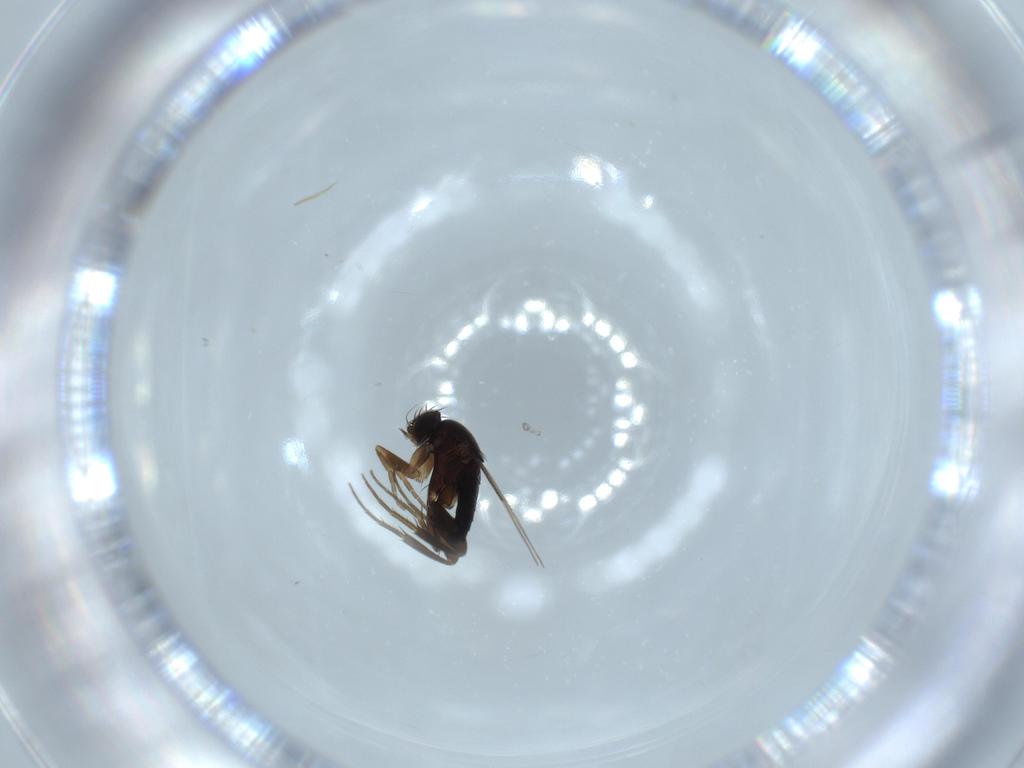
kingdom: Animalia
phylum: Arthropoda
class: Insecta
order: Diptera
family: Phoridae
